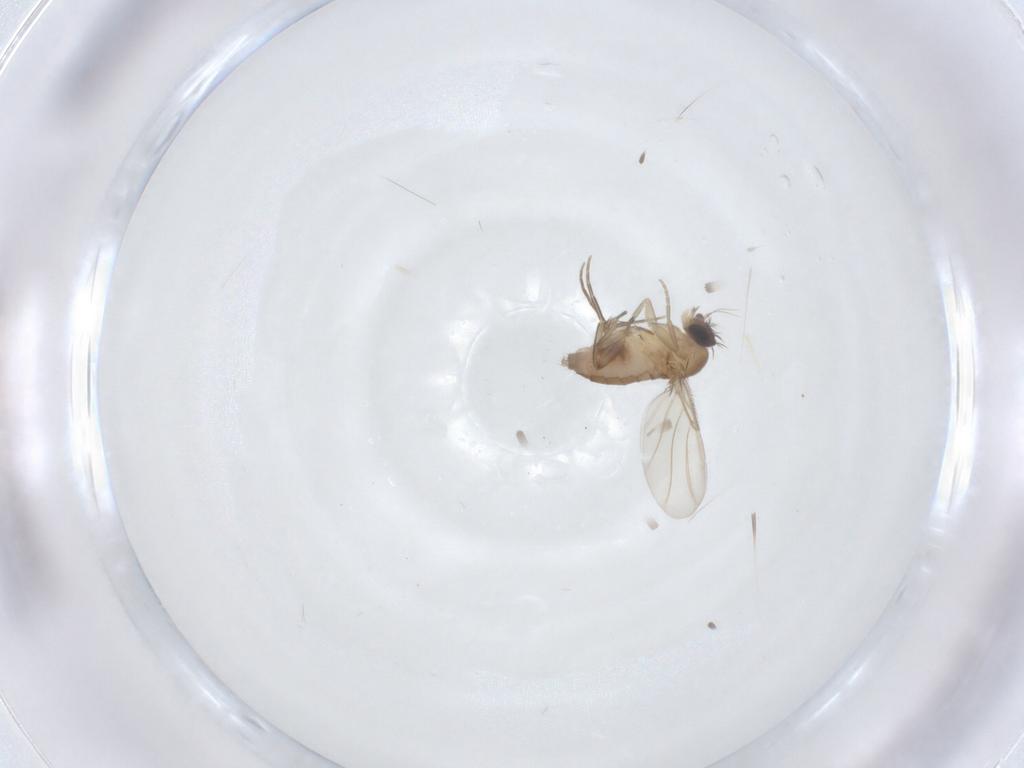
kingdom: Animalia
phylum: Arthropoda
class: Insecta
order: Diptera
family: Phoridae
